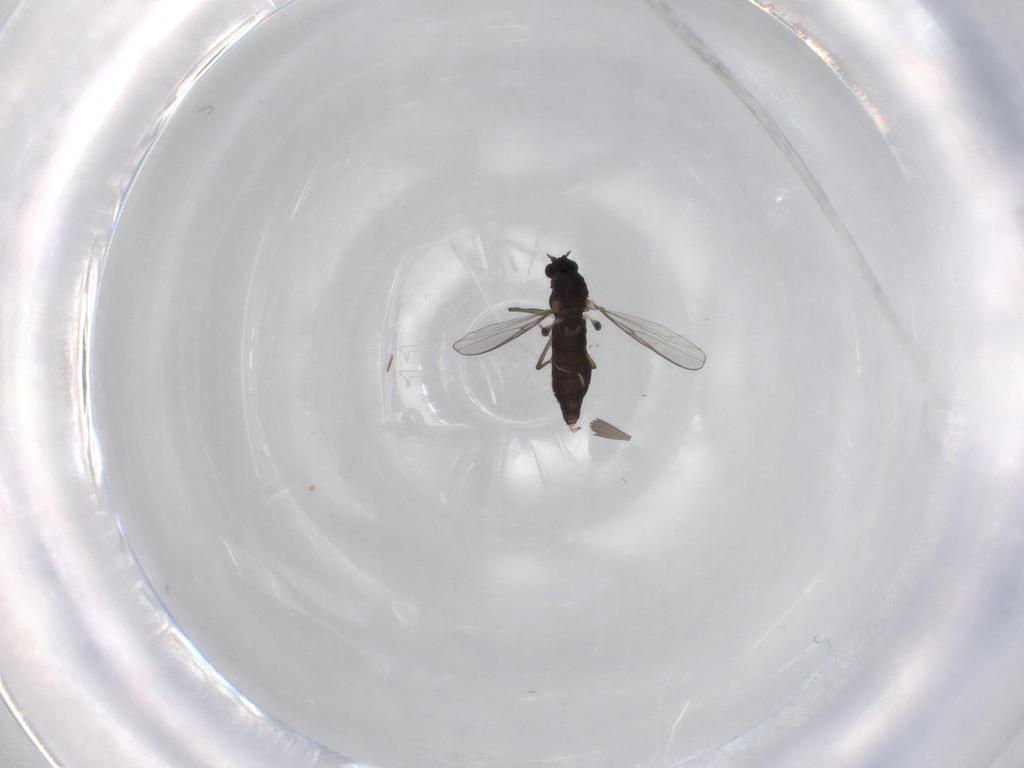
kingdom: Animalia
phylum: Arthropoda
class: Insecta
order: Diptera
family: Chironomidae
